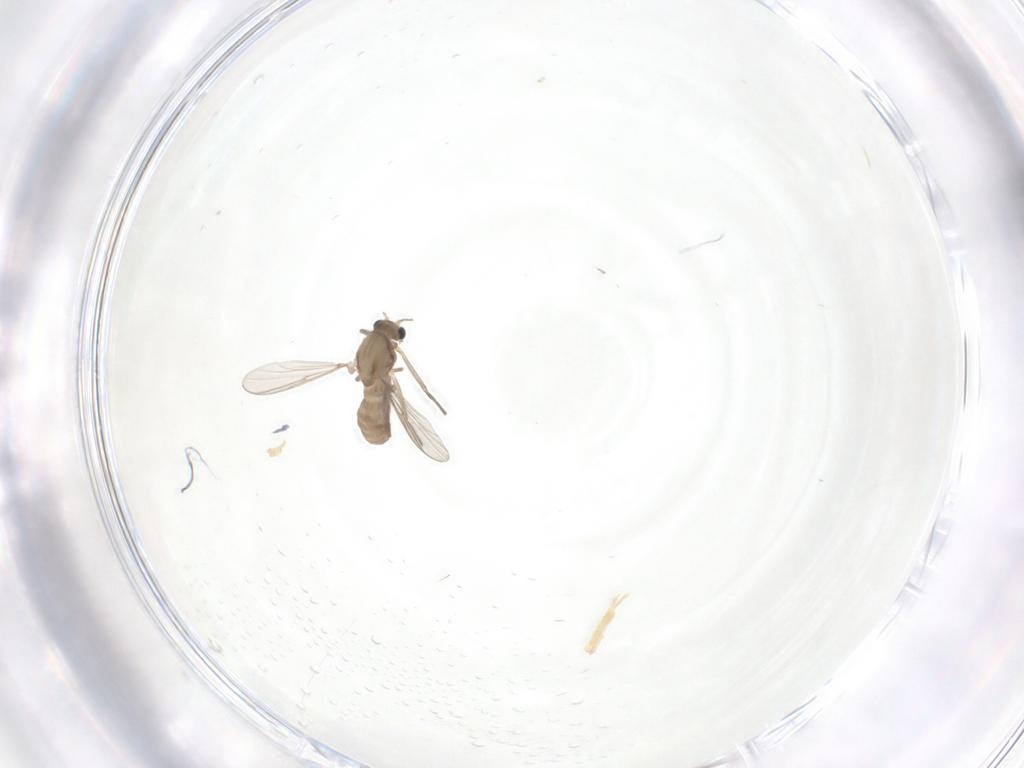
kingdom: Animalia
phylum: Arthropoda
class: Insecta
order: Diptera
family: Chironomidae
